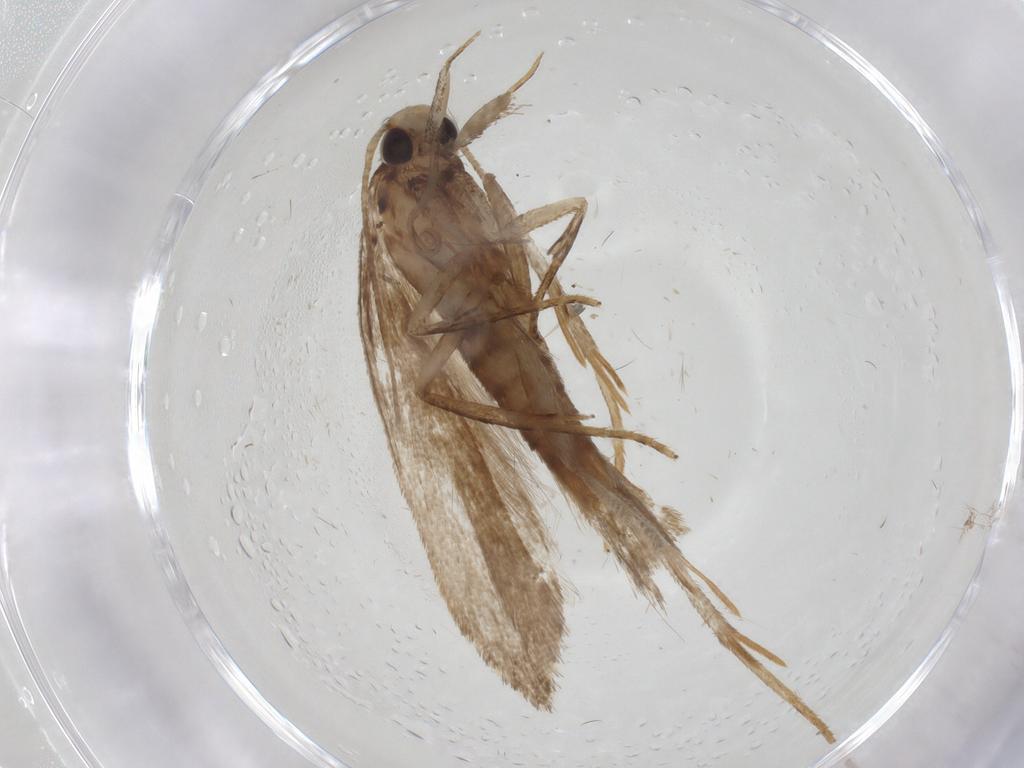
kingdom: Animalia
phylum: Arthropoda
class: Insecta
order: Lepidoptera
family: Gelechiidae
